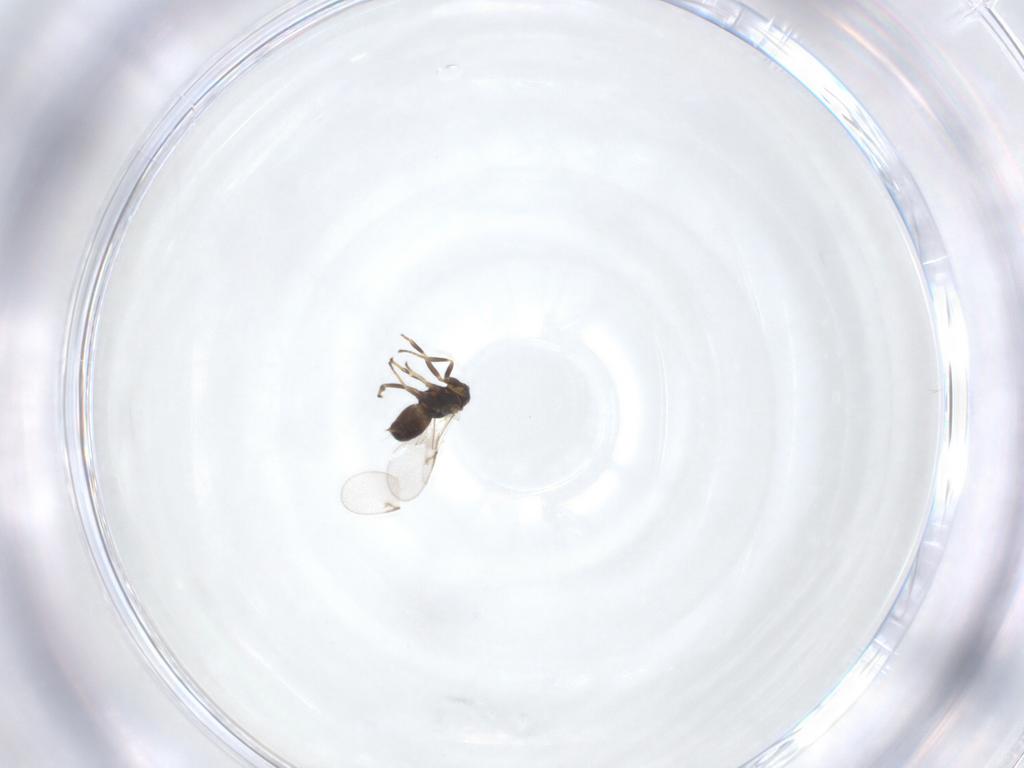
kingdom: Animalia
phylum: Arthropoda
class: Insecta
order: Hymenoptera
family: Encyrtidae
